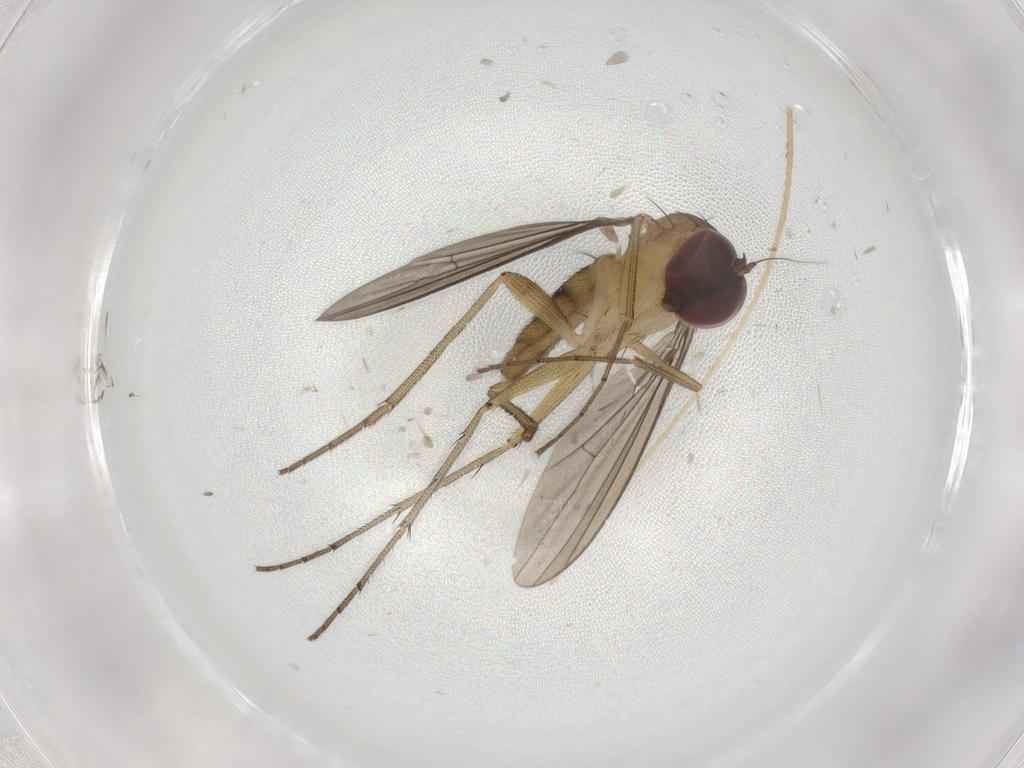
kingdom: Animalia
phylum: Arthropoda
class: Insecta
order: Diptera
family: Dolichopodidae
